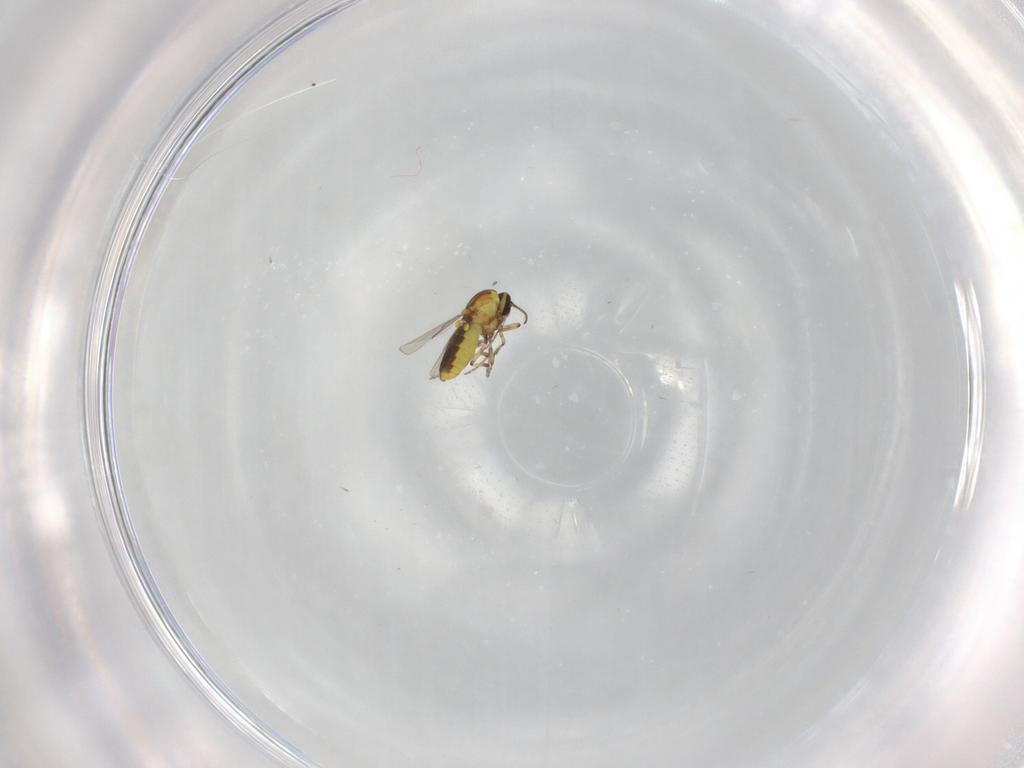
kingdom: Animalia
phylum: Arthropoda
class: Insecta
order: Diptera
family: Ceratopogonidae
